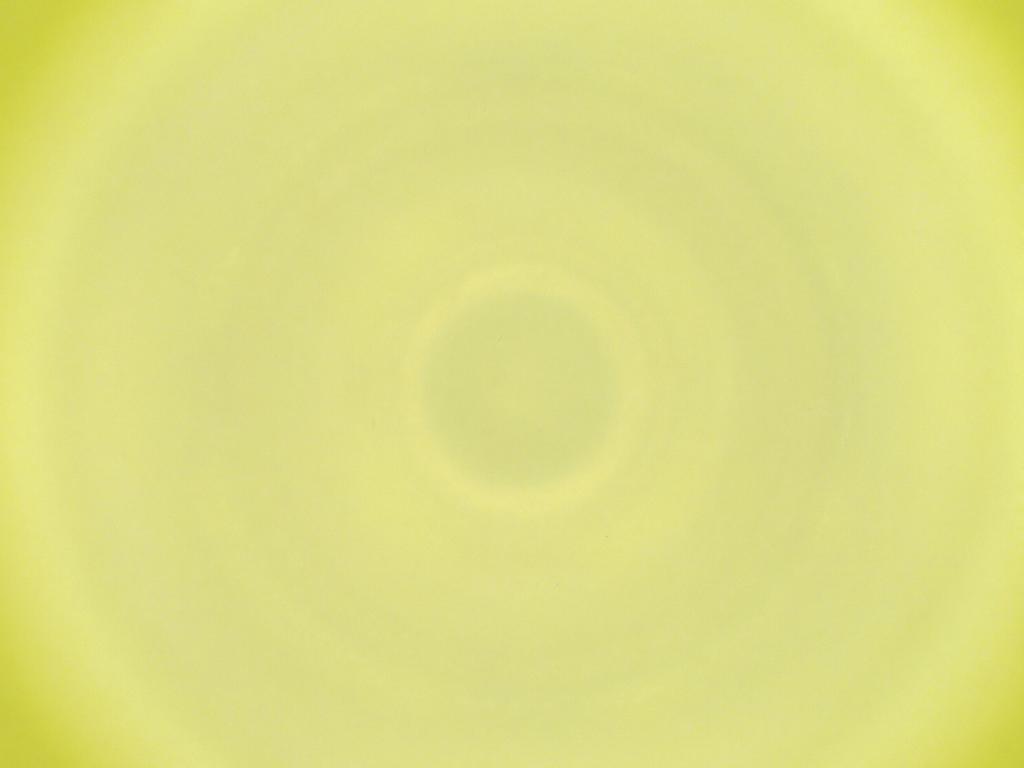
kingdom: Animalia
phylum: Arthropoda
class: Insecta
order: Diptera
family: Cecidomyiidae
